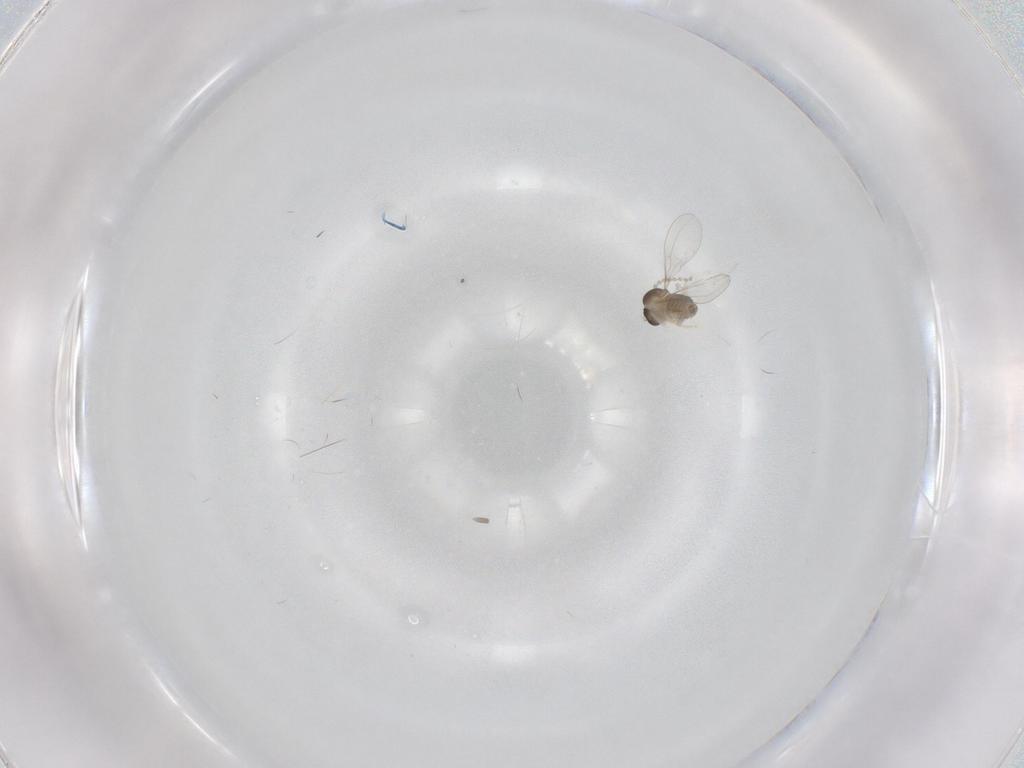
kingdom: Animalia
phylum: Arthropoda
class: Insecta
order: Diptera
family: Cecidomyiidae
